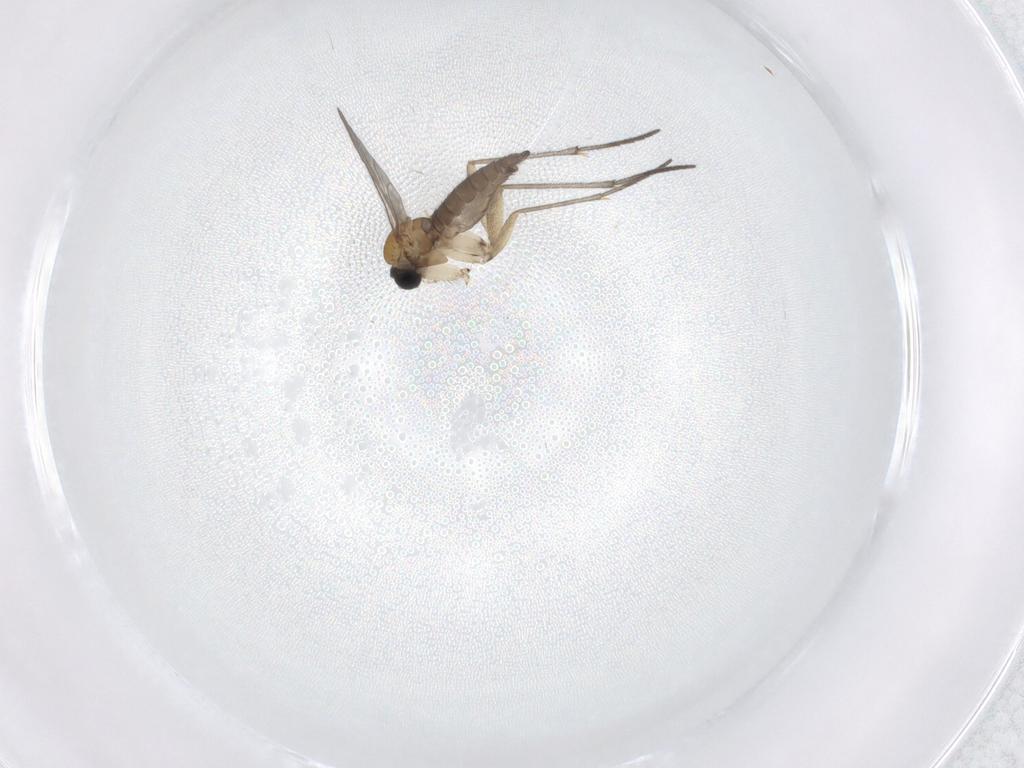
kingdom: Animalia
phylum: Arthropoda
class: Insecta
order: Diptera
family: Sciaridae
